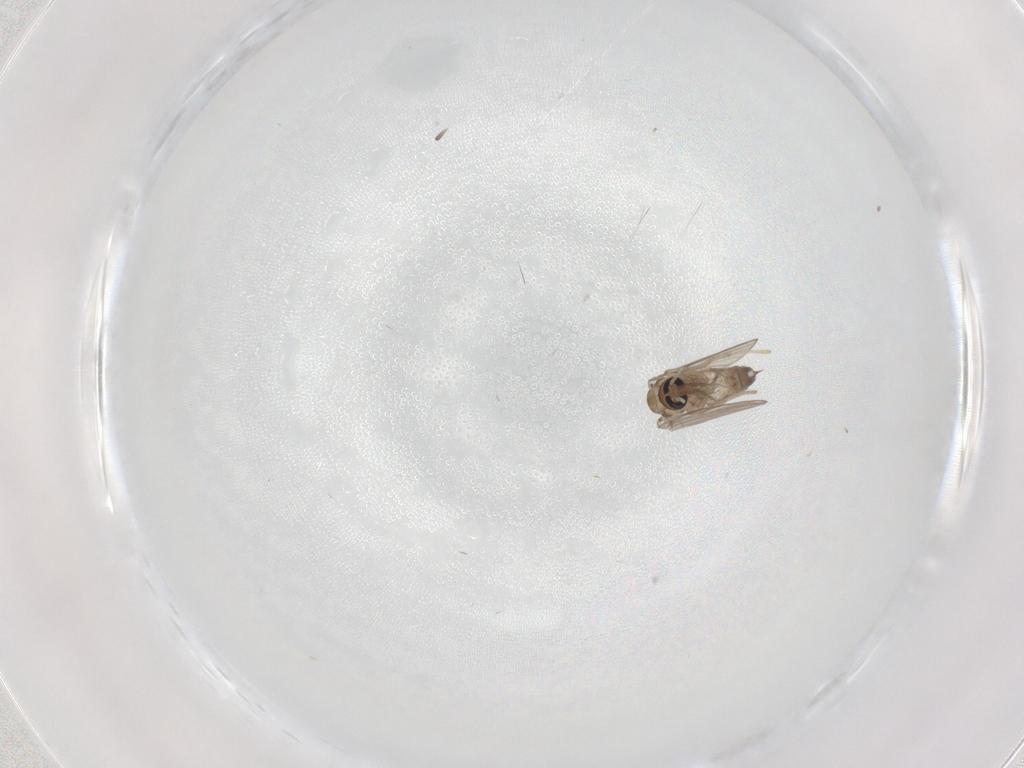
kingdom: Animalia
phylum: Arthropoda
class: Insecta
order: Diptera
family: Psychodidae
